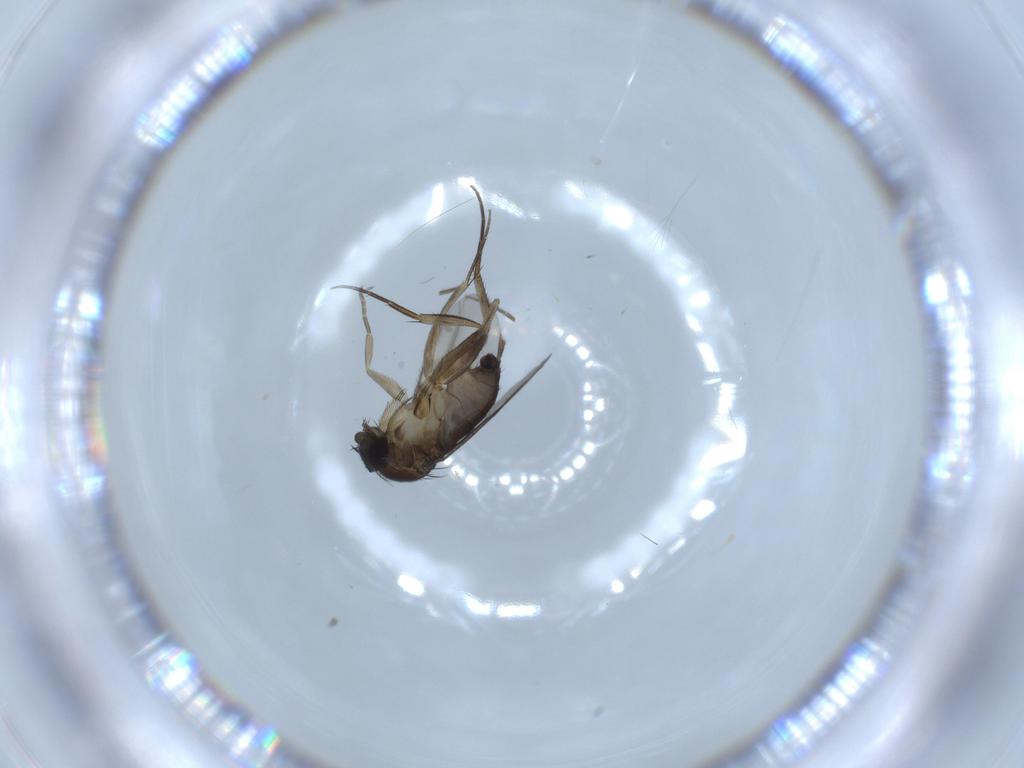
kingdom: Animalia
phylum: Arthropoda
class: Insecta
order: Diptera
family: Phoridae
